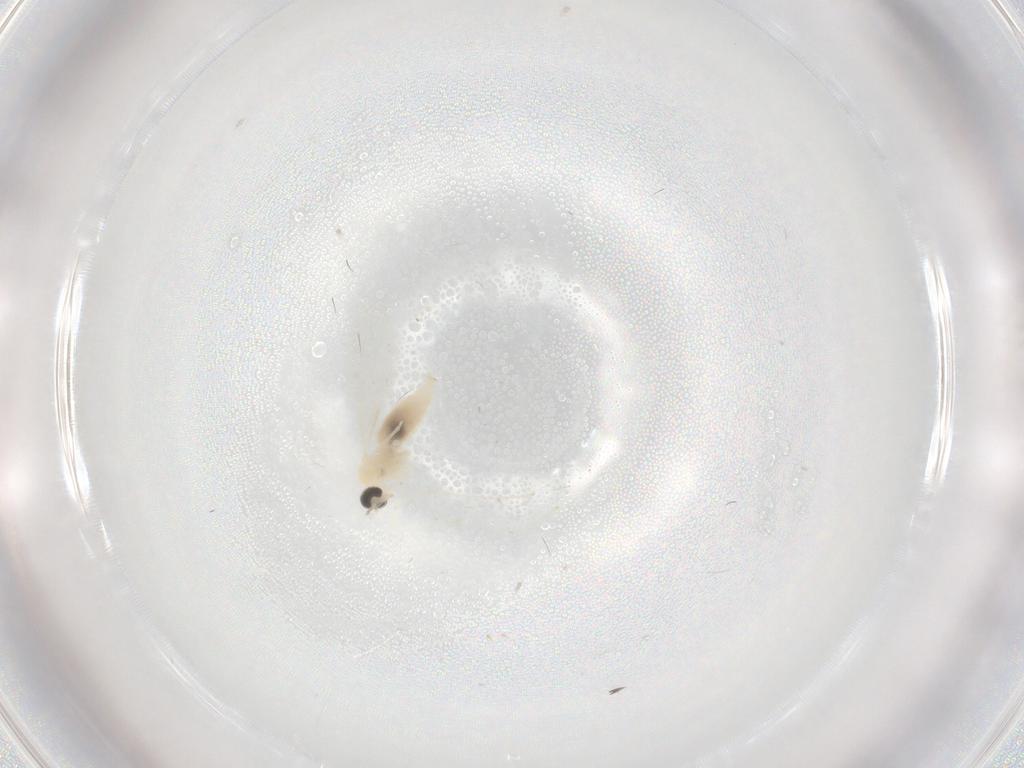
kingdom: Animalia
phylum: Arthropoda
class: Insecta
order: Diptera
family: Cecidomyiidae
